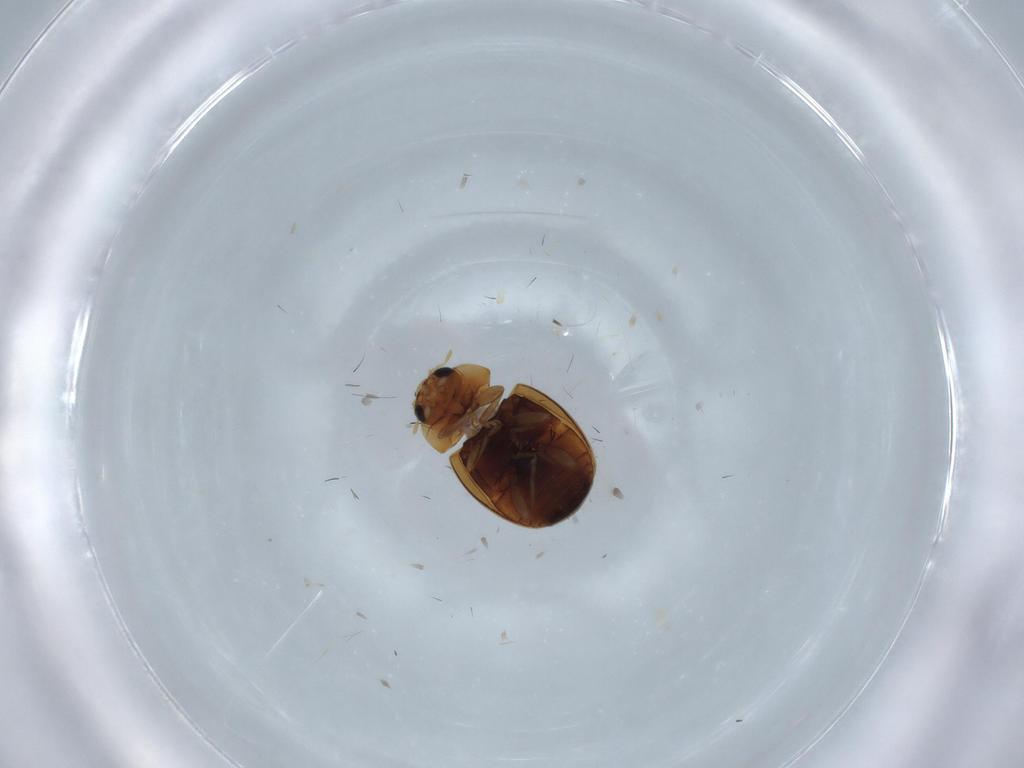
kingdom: Animalia
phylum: Arthropoda
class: Insecta
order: Coleoptera
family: Coccinellidae
